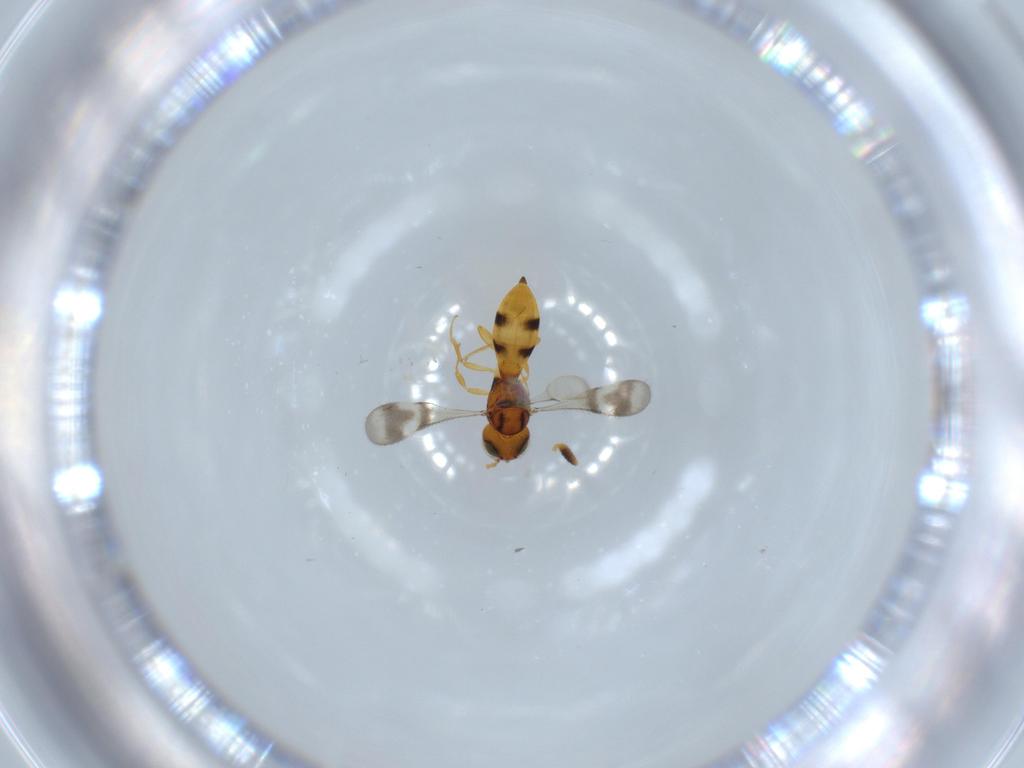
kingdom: Animalia
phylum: Arthropoda
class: Insecta
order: Hymenoptera
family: Scelionidae
